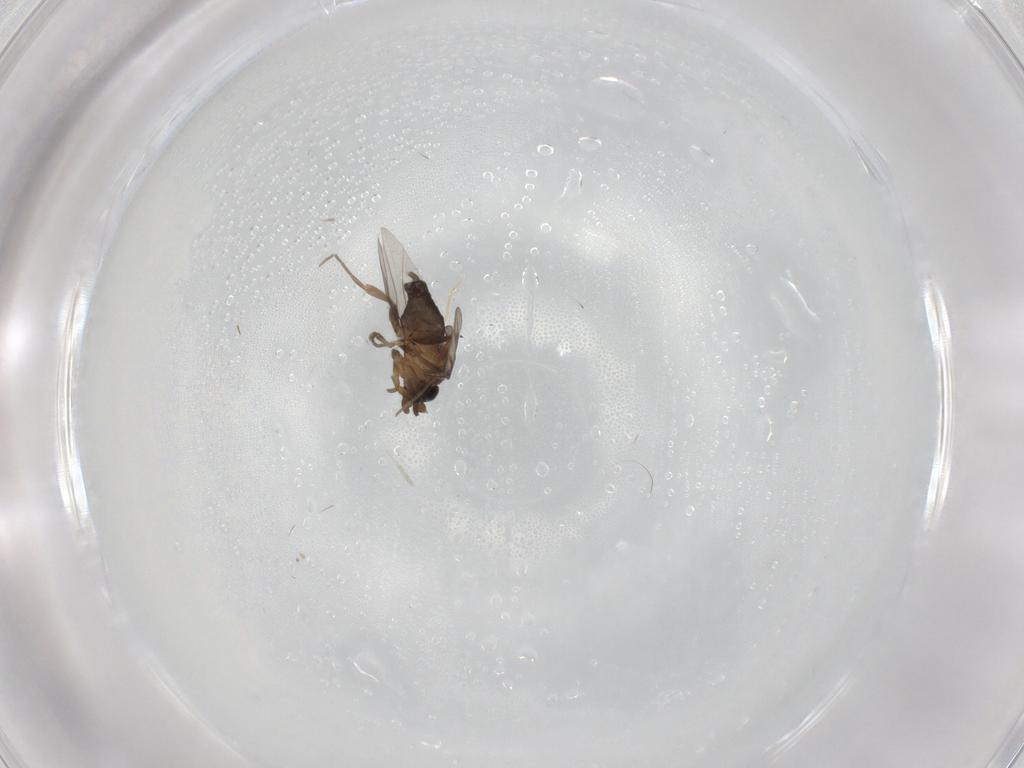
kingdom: Animalia
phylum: Arthropoda
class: Insecta
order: Diptera
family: Phoridae
